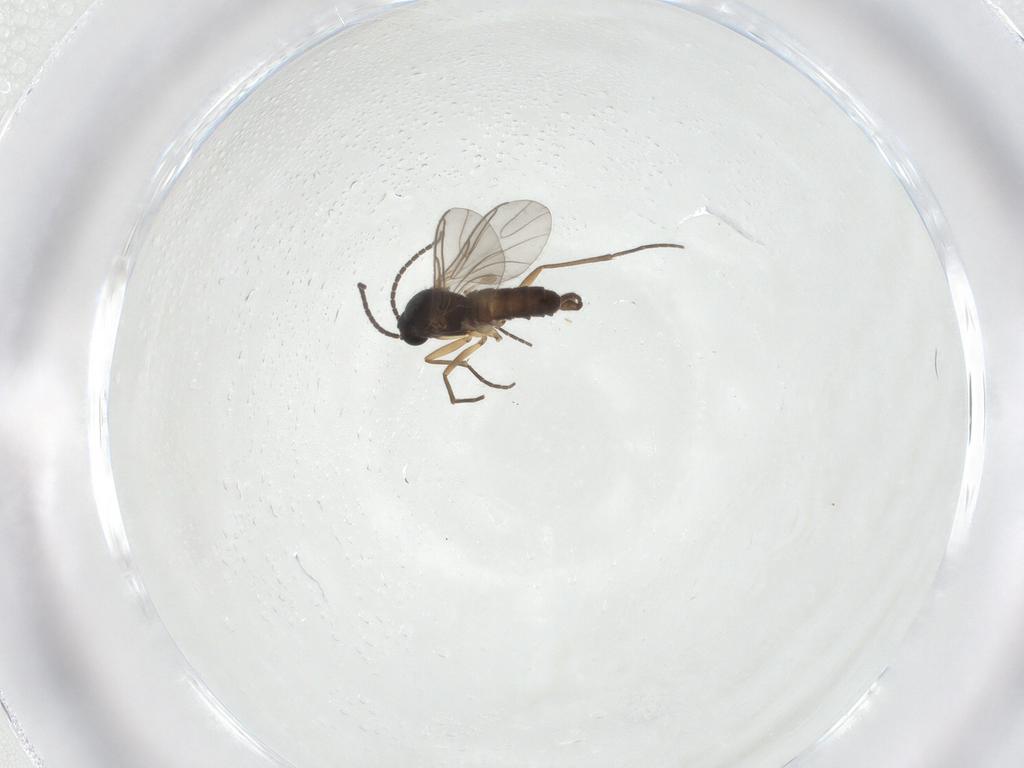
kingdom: Animalia
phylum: Arthropoda
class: Insecta
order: Diptera
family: Sciaridae
